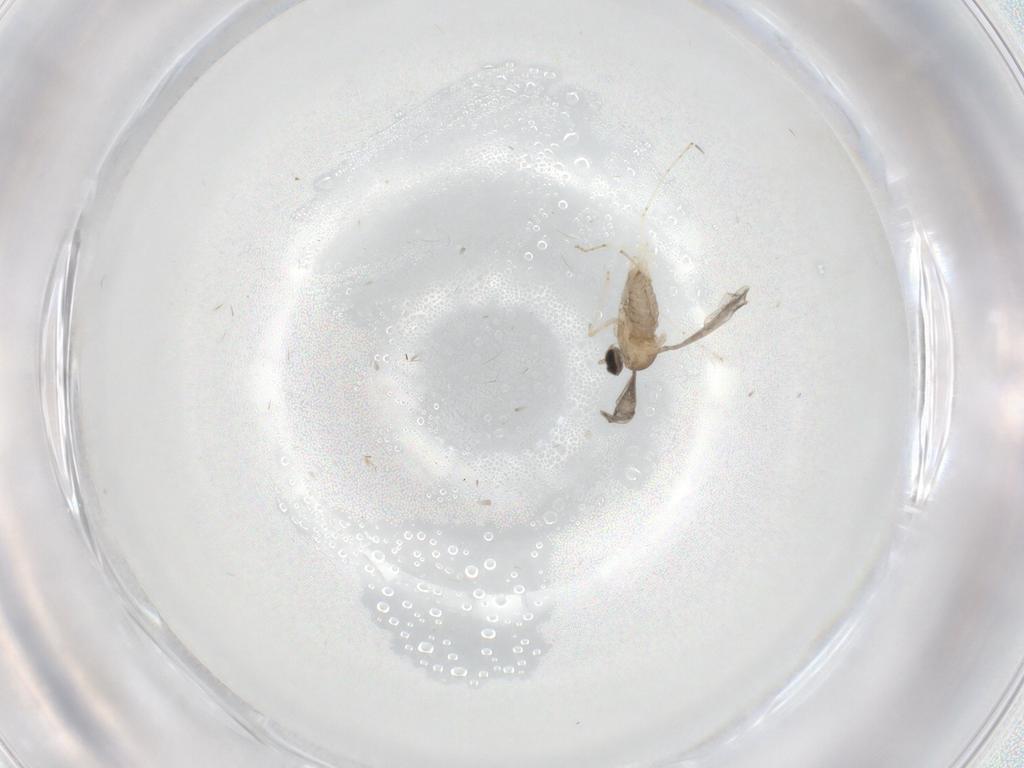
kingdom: Animalia
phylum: Arthropoda
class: Insecta
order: Diptera
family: Cecidomyiidae
